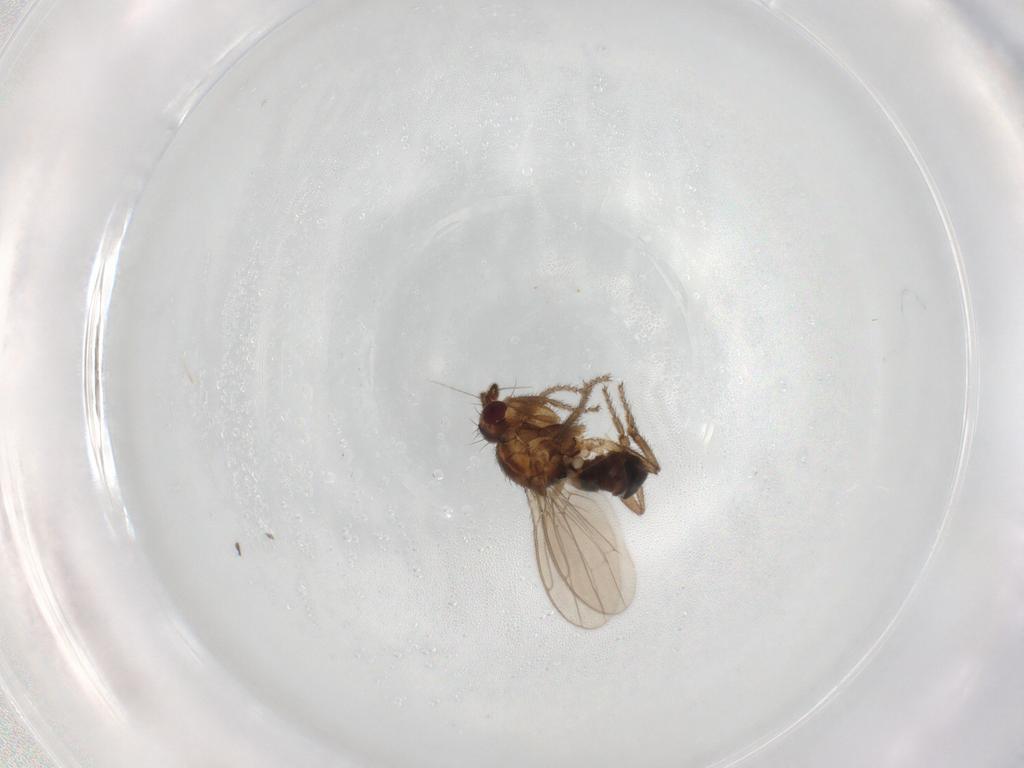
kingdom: Animalia
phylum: Arthropoda
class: Insecta
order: Diptera
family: Sphaeroceridae
